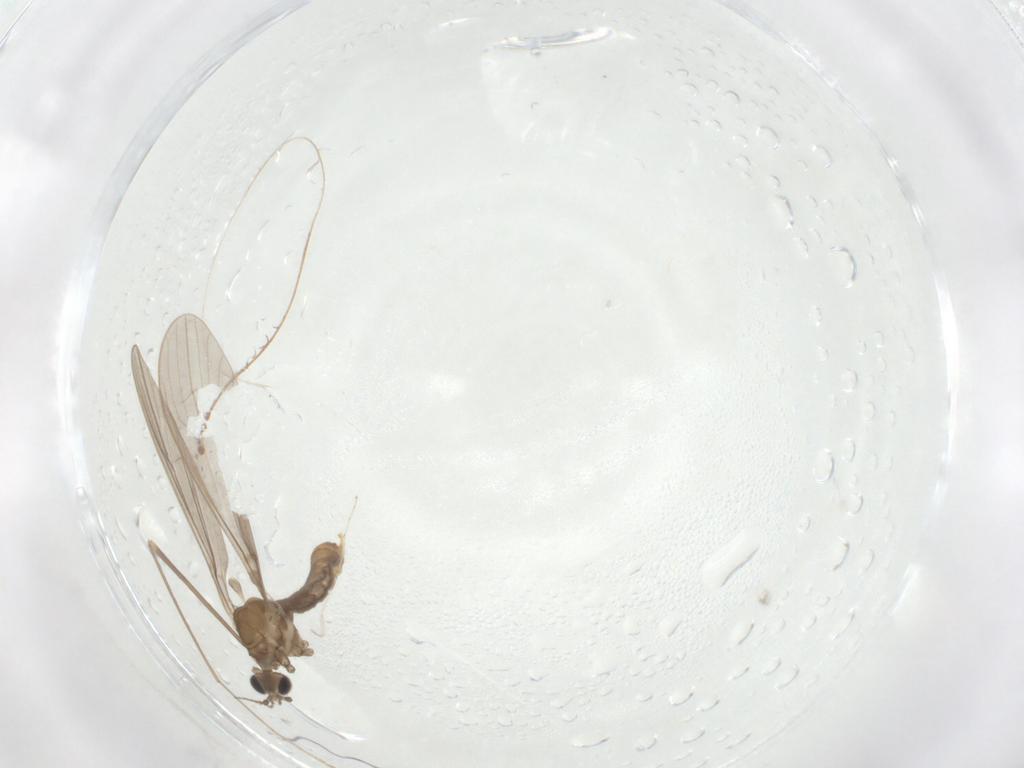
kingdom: Animalia
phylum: Arthropoda
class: Insecta
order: Diptera
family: Limoniidae
